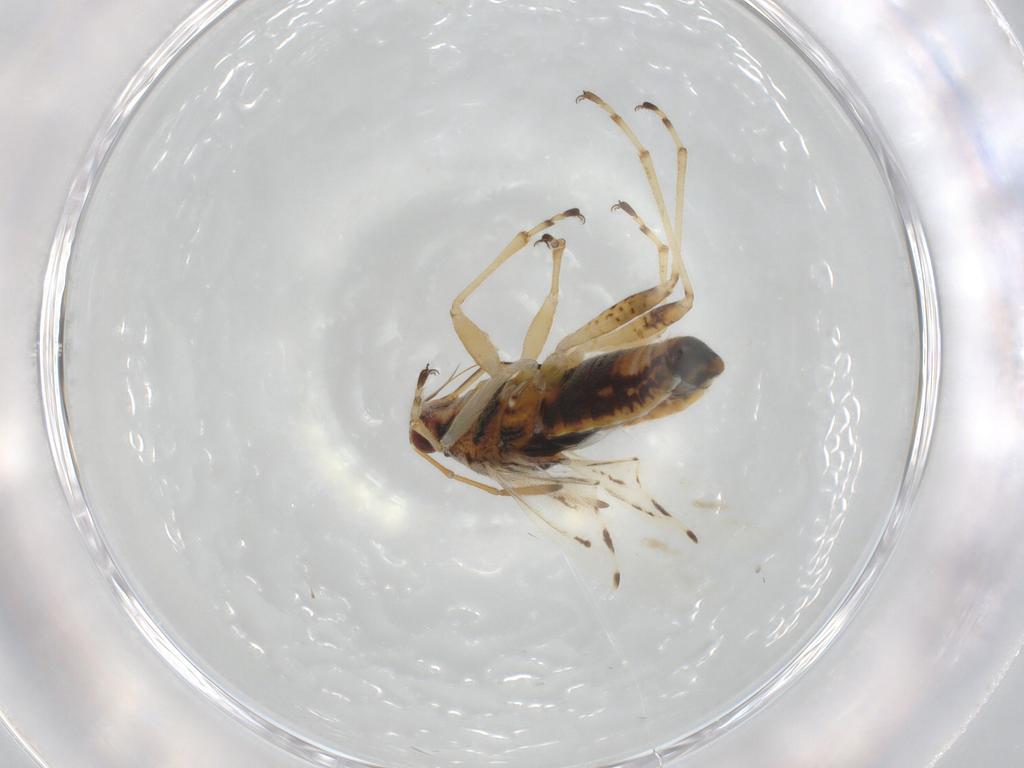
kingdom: Animalia
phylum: Arthropoda
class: Insecta
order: Hemiptera
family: Lygaeidae
